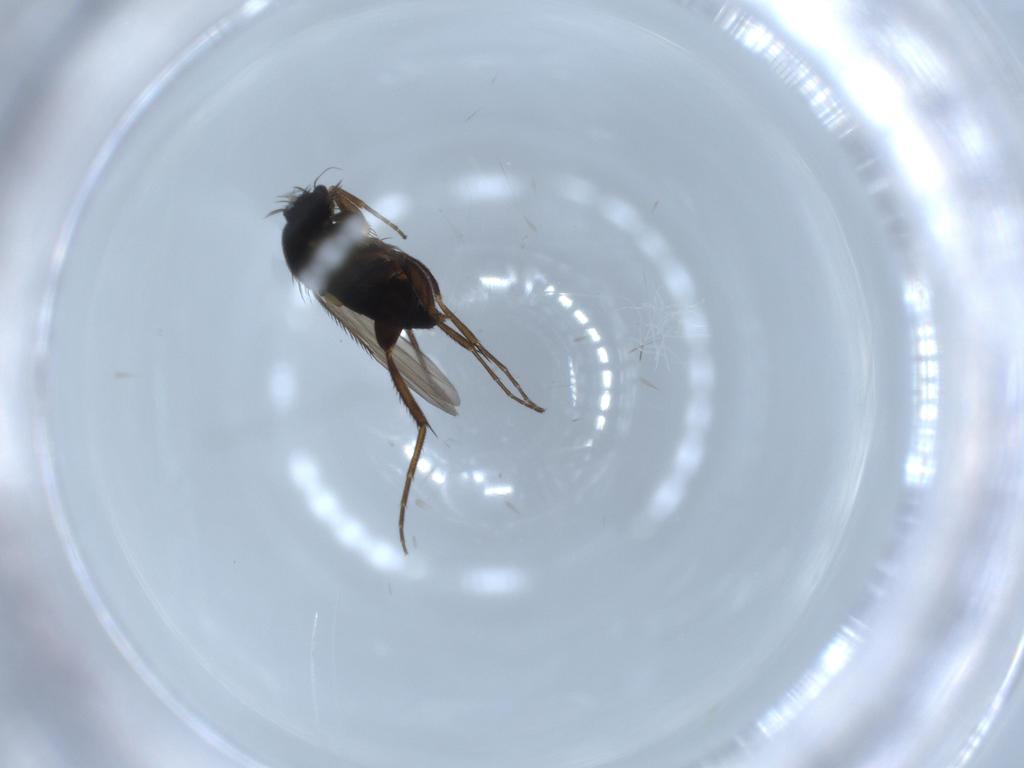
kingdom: Animalia
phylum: Arthropoda
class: Insecta
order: Diptera
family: Phoridae
